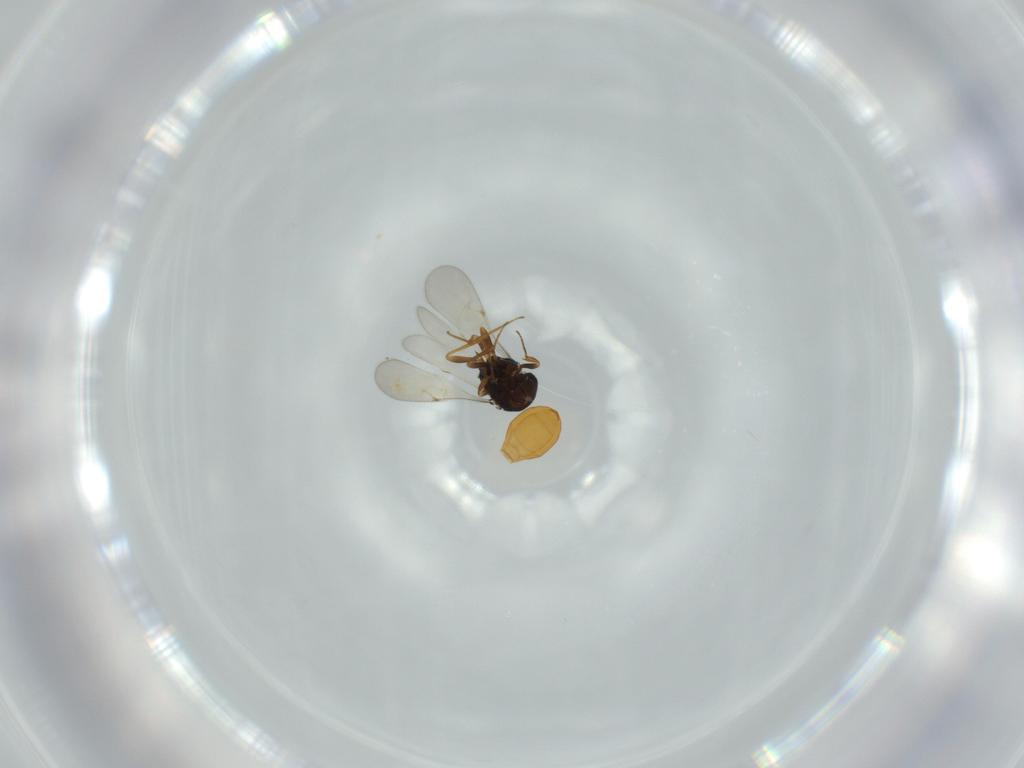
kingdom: Animalia
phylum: Arthropoda
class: Insecta
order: Hymenoptera
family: Scelionidae
